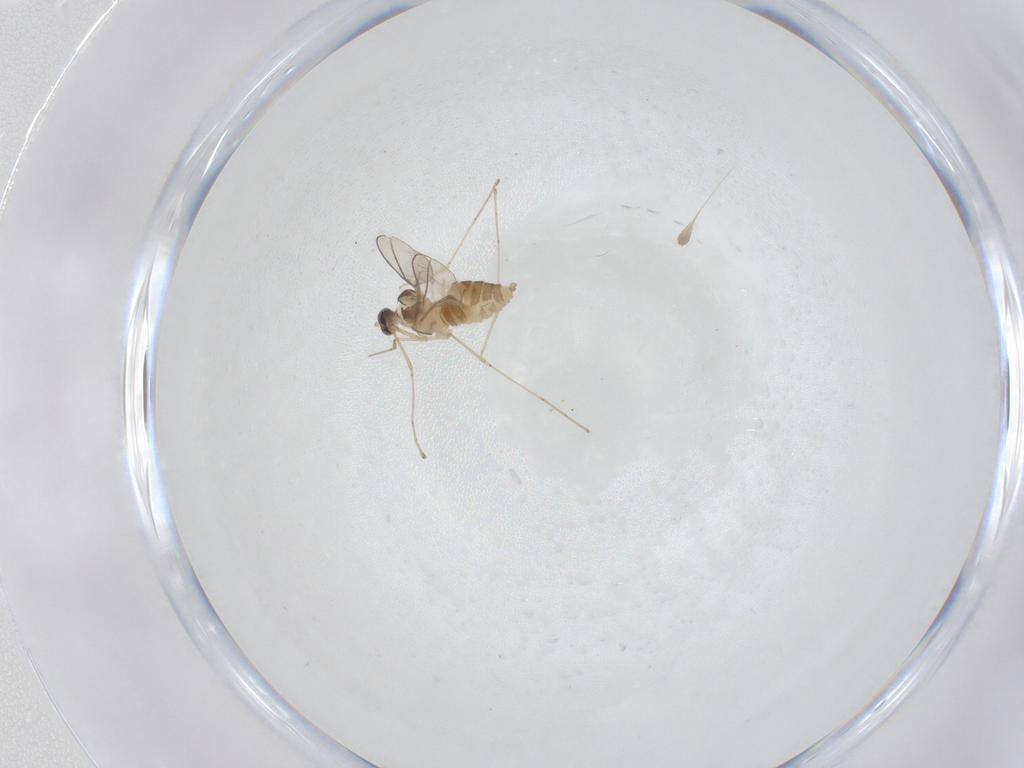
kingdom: Animalia
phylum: Arthropoda
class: Insecta
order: Diptera
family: Cecidomyiidae
